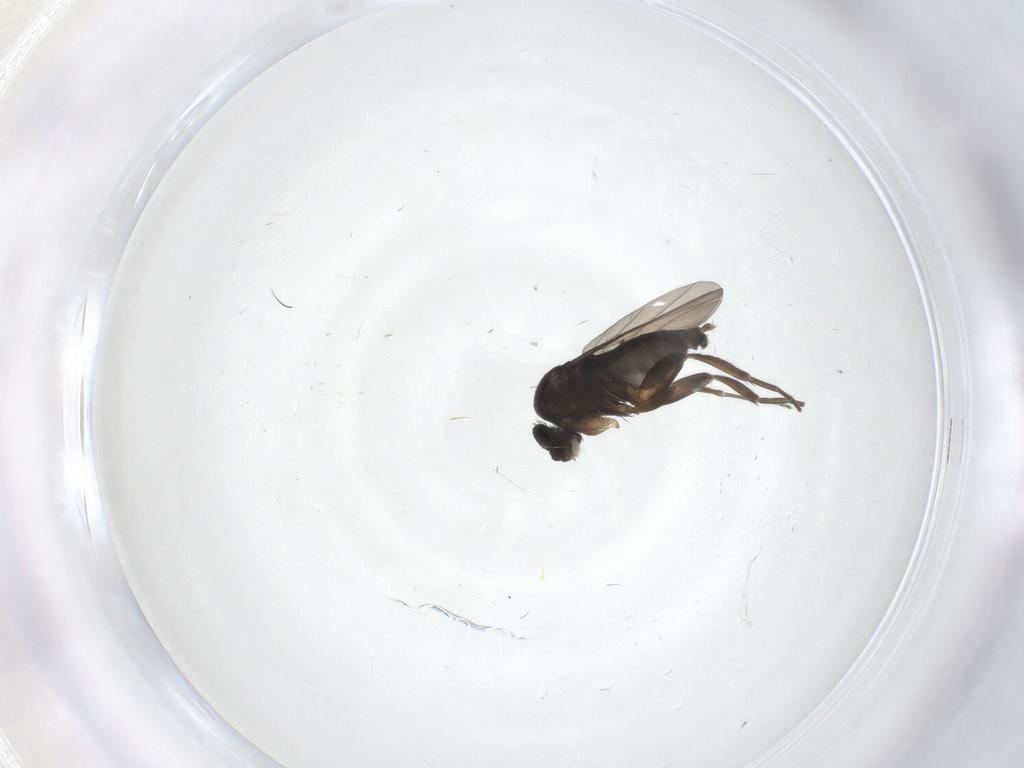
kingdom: Animalia
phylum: Arthropoda
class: Insecta
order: Diptera
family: Phoridae
